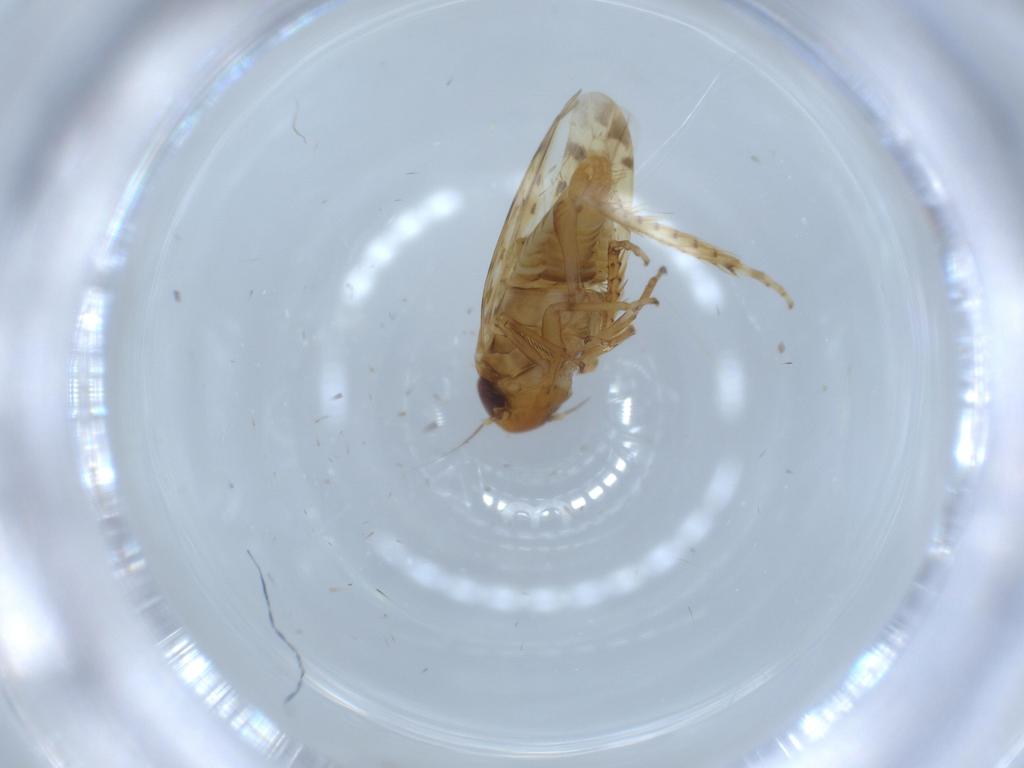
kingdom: Animalia
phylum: Arthropoda
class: Insecta
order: Hemiptera
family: Cicadellidae
